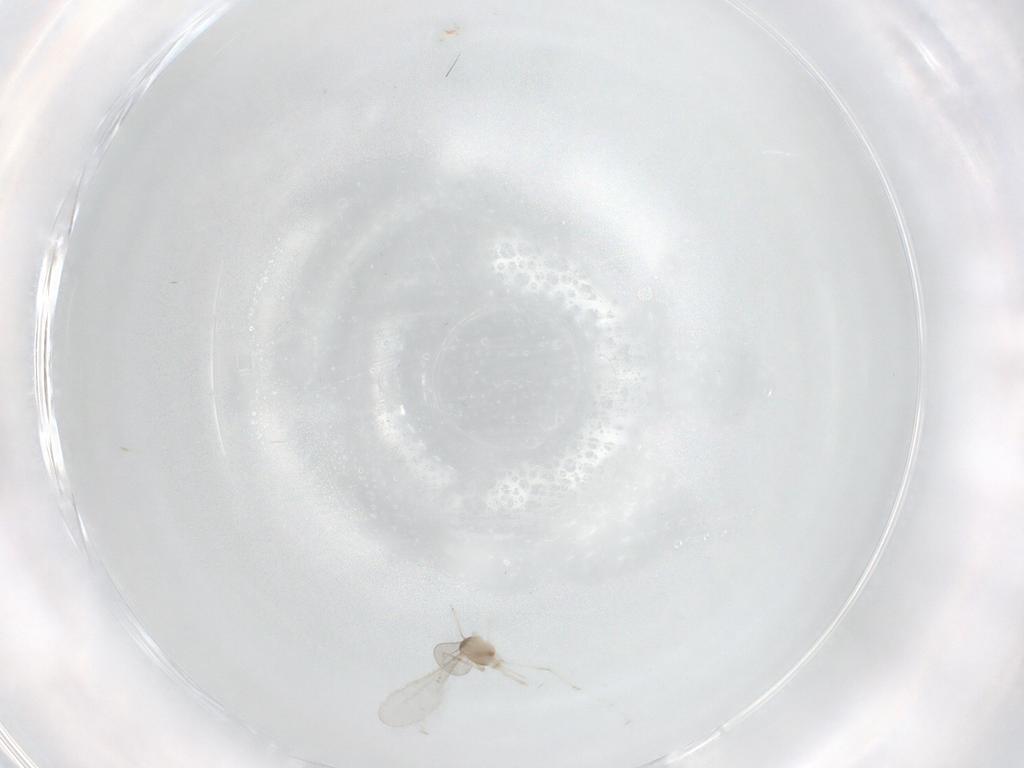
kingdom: Animalia
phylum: Arthropoda
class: Insecta
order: Diptera
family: Cecidomyiidae
